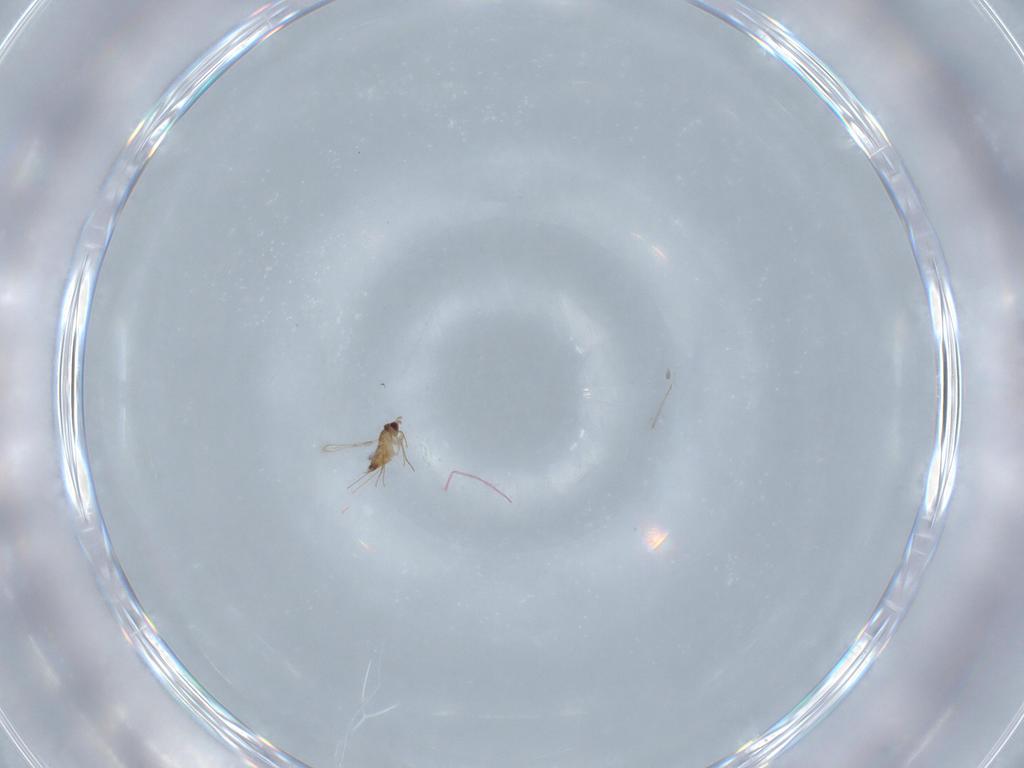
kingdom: Animalia
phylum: Arthropoda
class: Insecta
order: Hymenoptera
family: Mymaridae
